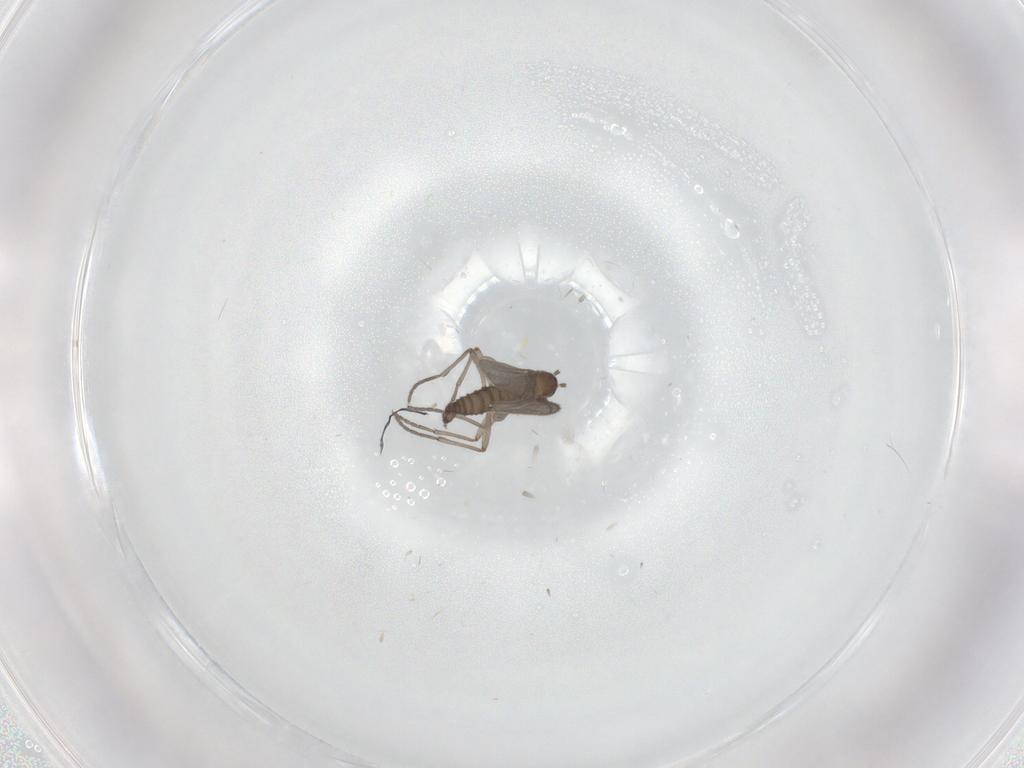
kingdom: Animalia
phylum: Arthropoda
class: Insecta
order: Diptera
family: Sciaridae
